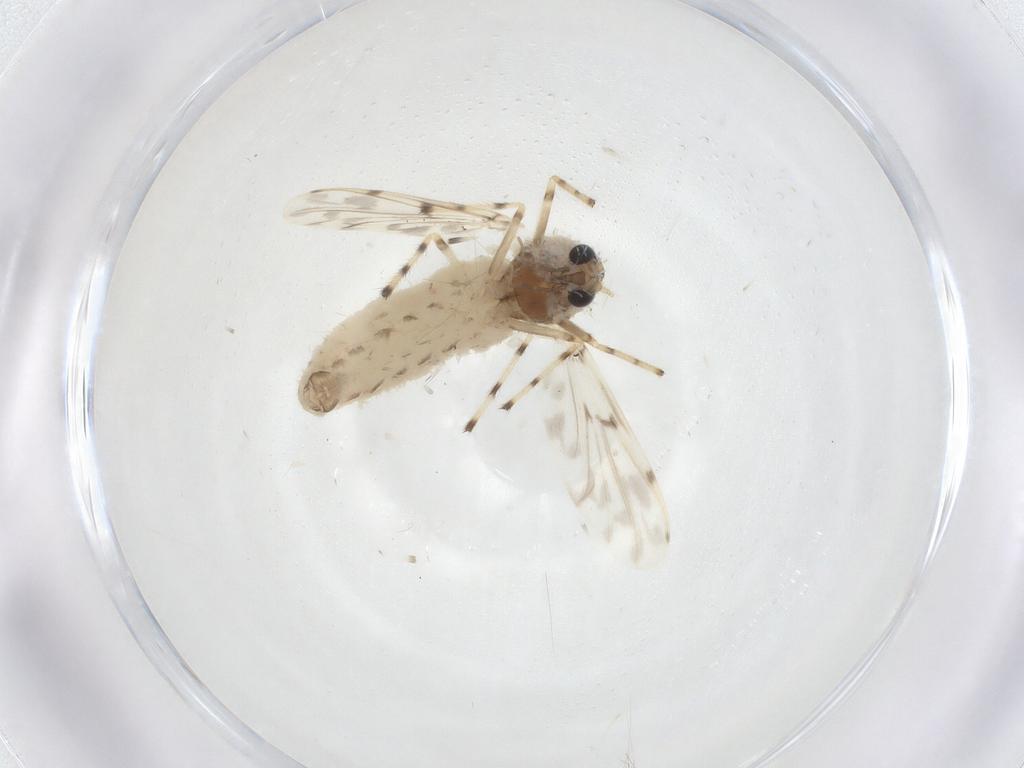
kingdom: Animalia
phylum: Arthropoda
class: Insecta
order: Diptera
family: Chironomidae
